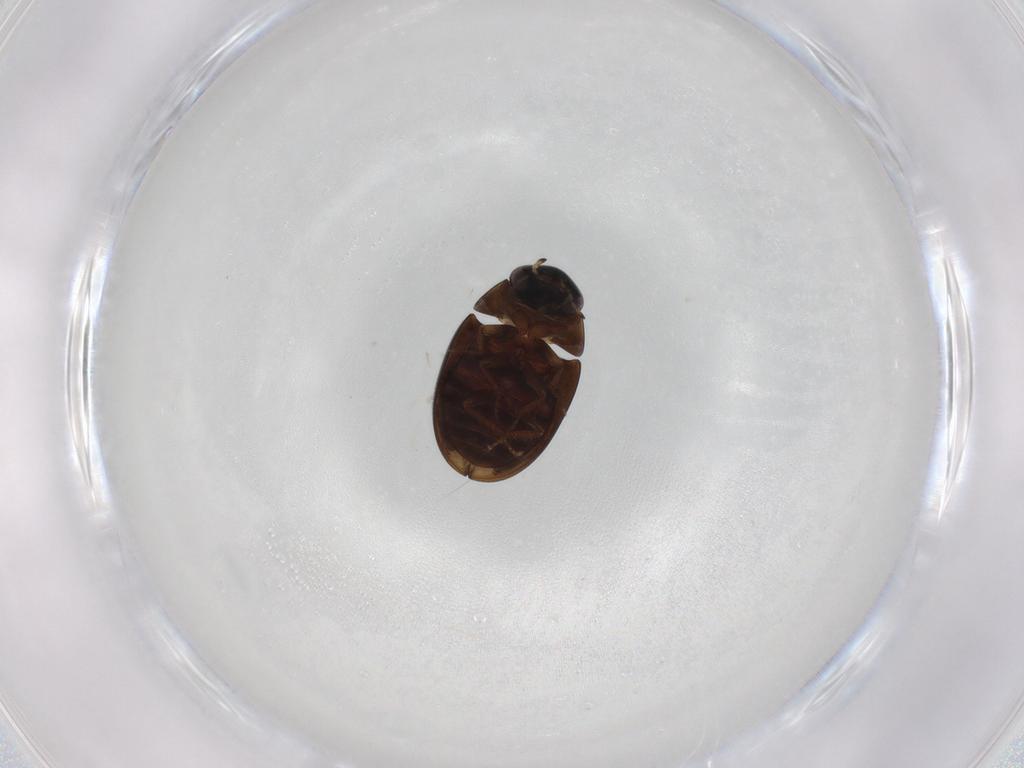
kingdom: Animalia
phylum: Arthropoda
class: Insecta
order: Coleoptera
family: Hydrophilidae
